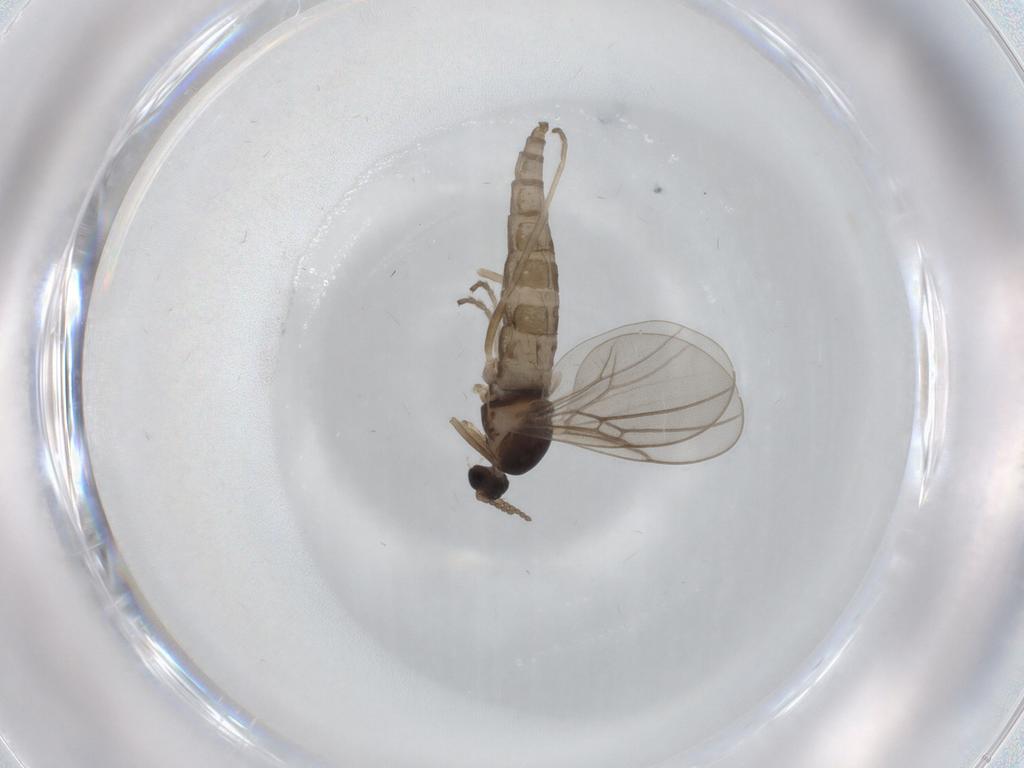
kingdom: Animalia
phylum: Arthropoda
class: Insecta
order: Diptera
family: Cecidomyiidae
